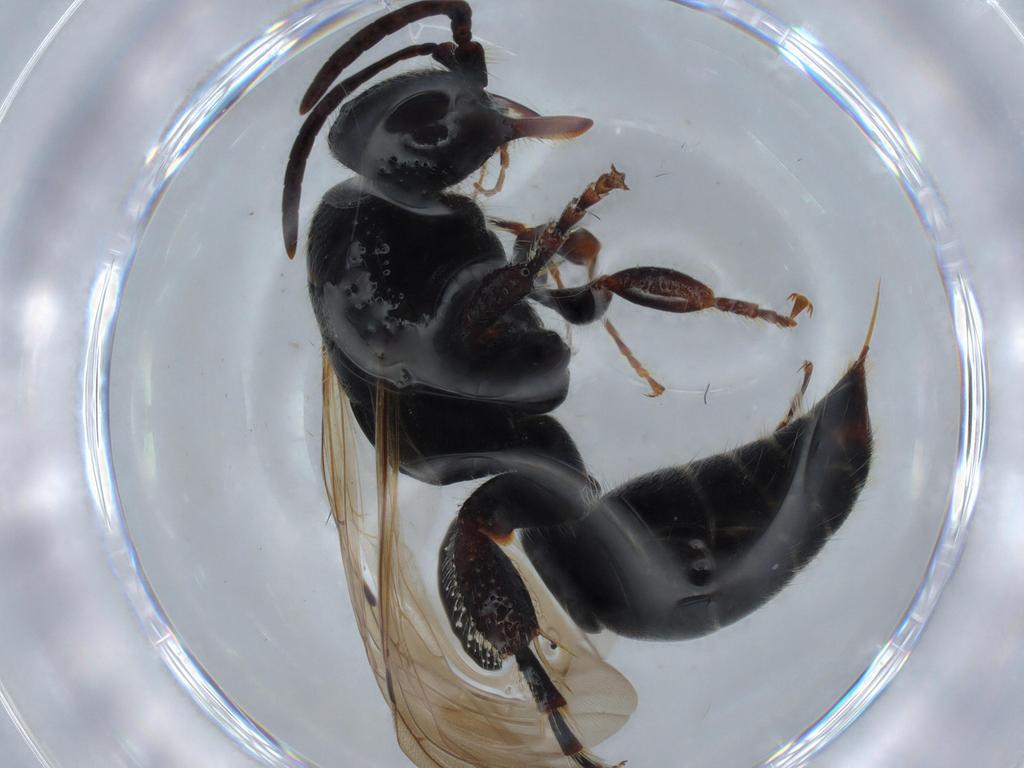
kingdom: Animalia
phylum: Arthropoda
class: Insecta
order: Hymenoptera
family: Tiphiidae
